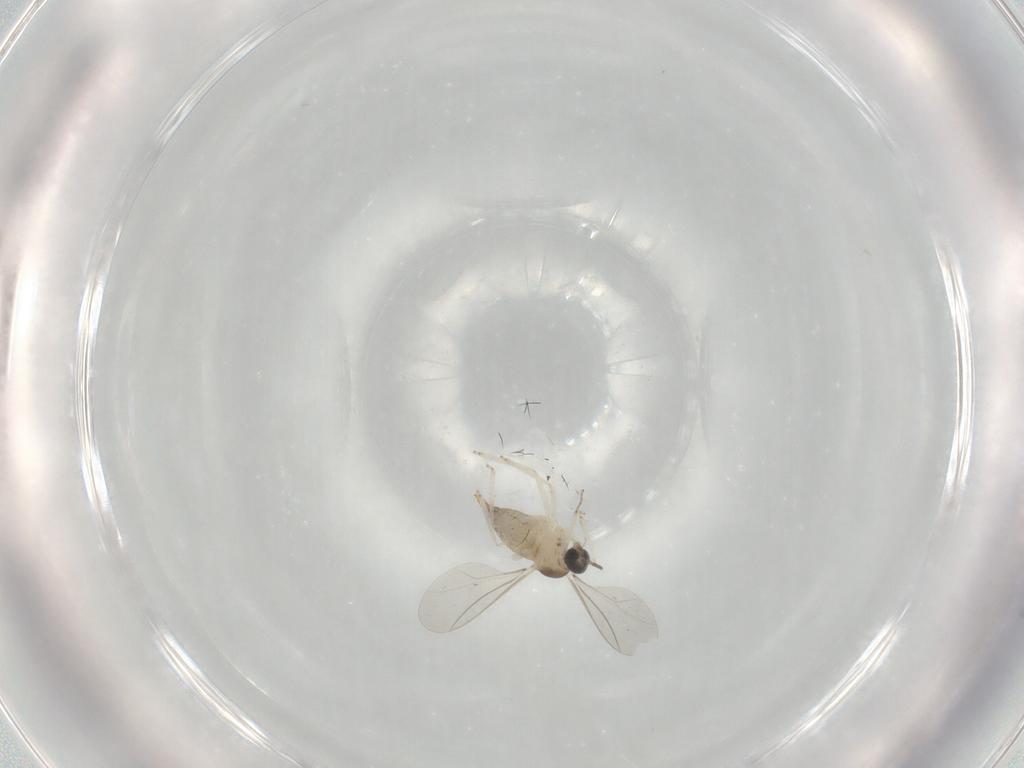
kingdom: Animalia
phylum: Arthropoda
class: Insecta
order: Diptera
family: Cecidomyiidae
